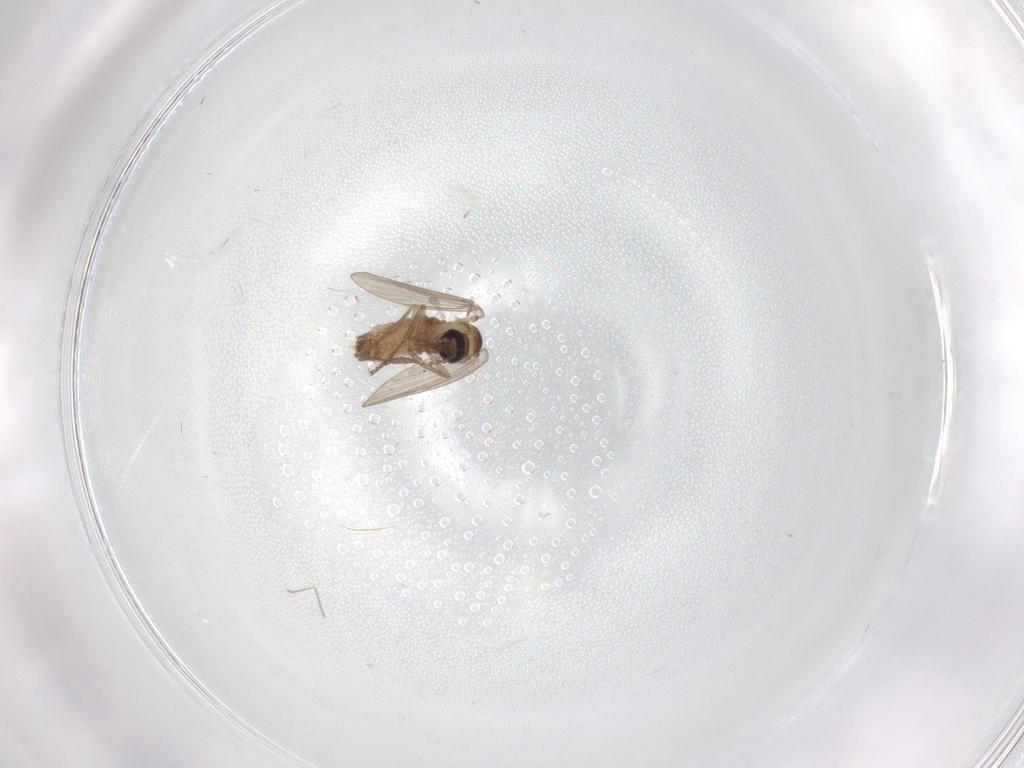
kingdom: Animalia
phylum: Arthropoda
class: Insecta
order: Diptera
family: Psychodidae
